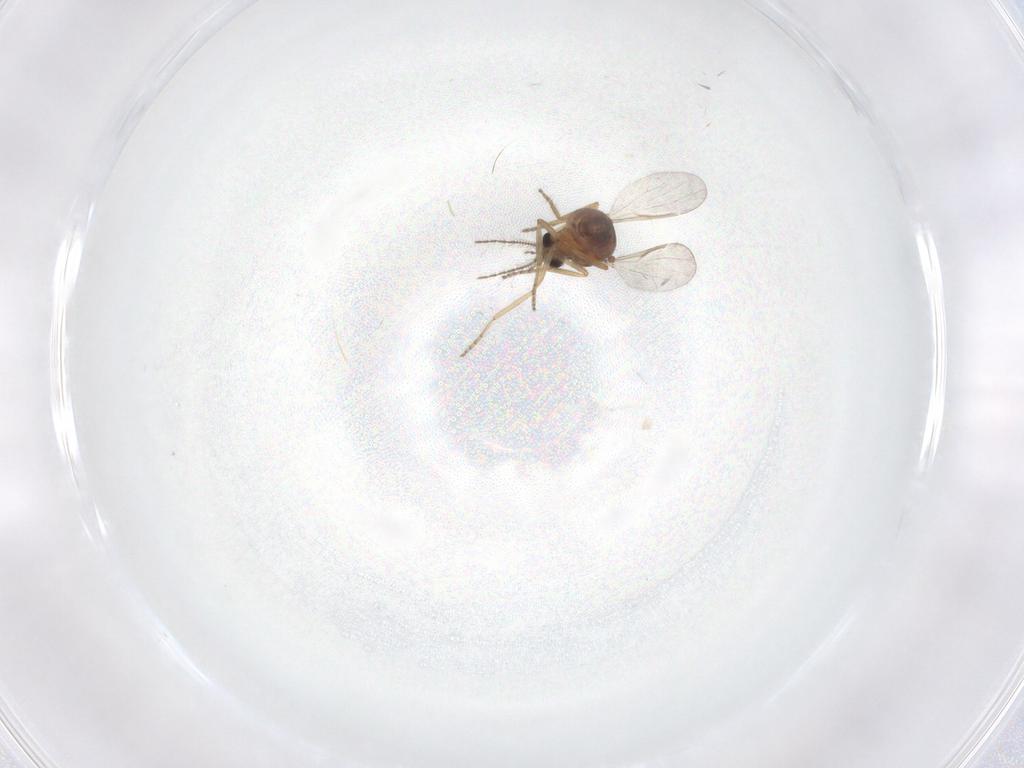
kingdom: Animalia
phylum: Arthropoda
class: Insecta
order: Diptera
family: Ceratopogonidae
